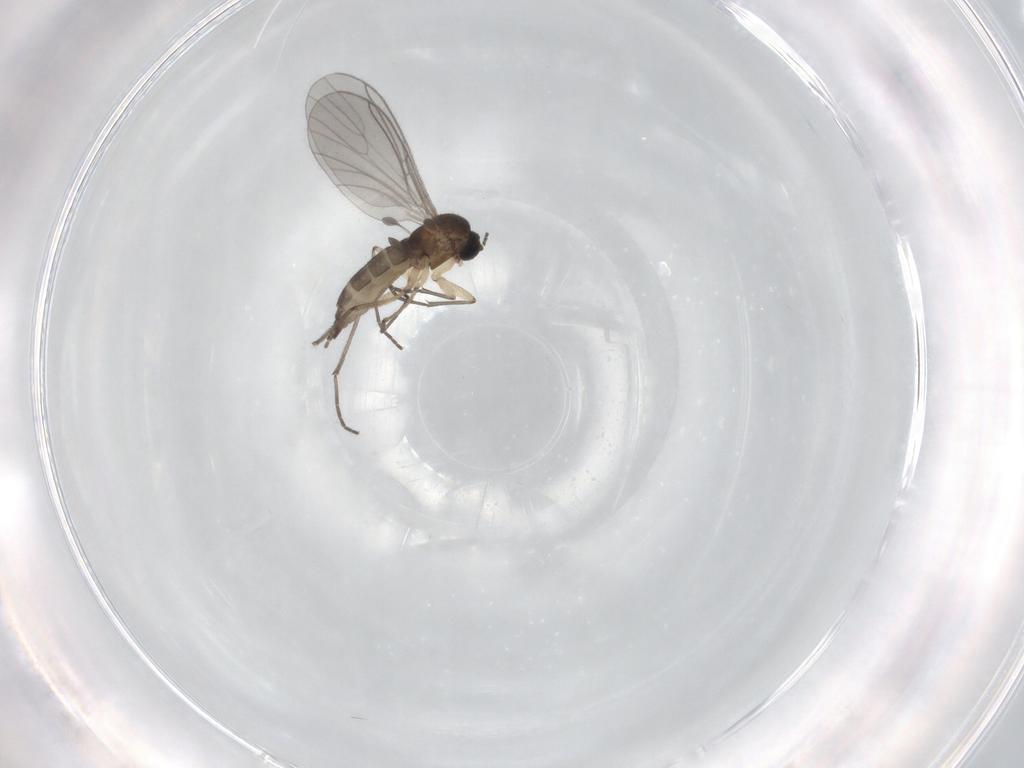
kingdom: Animalia
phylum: Arthropoda
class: Insecta
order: Diptera
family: Sciaridae
